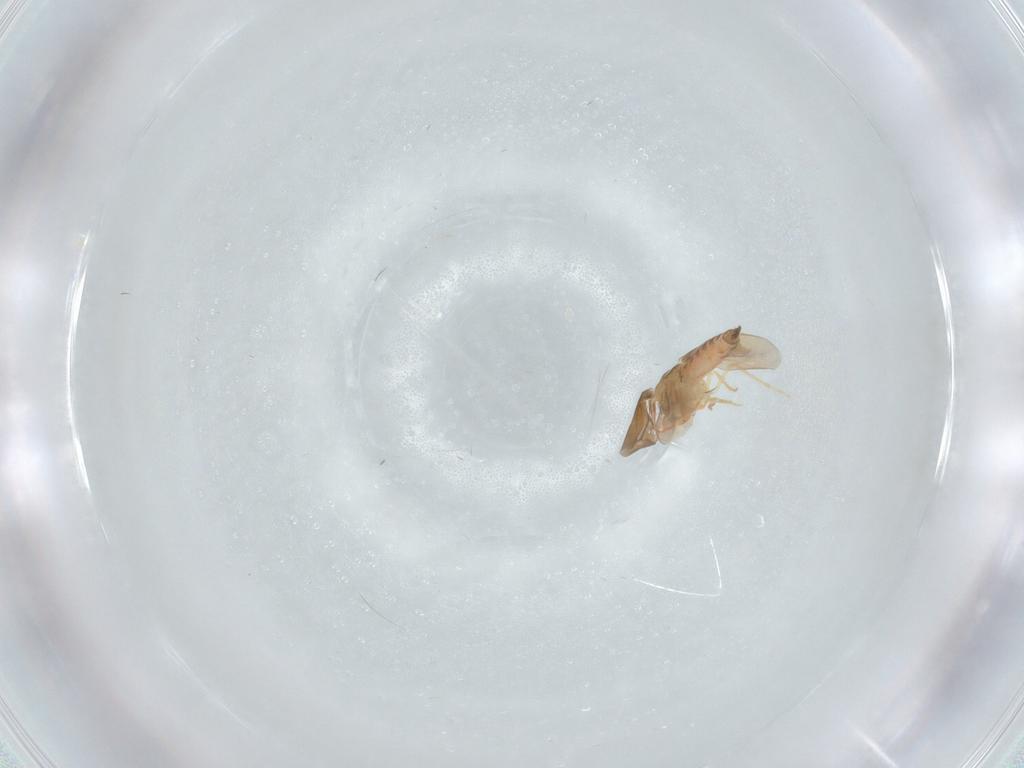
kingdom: Animalia
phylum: Arthropoda
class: Insecta
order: Hemiptera
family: Aleyrodidae
